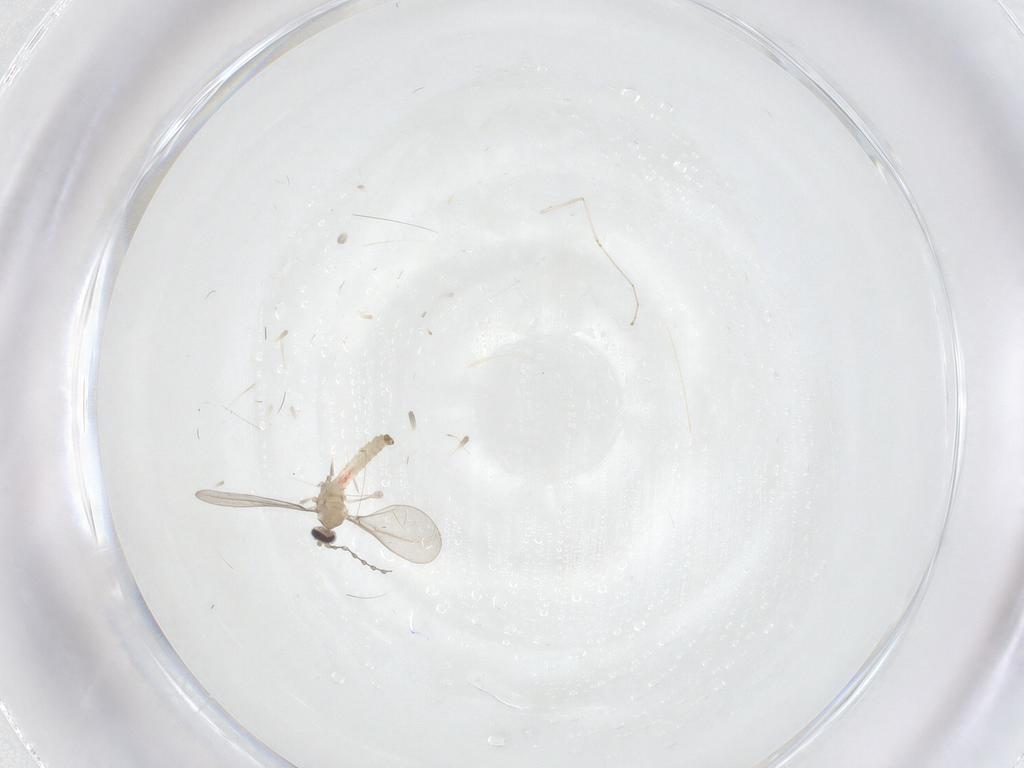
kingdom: Animalia
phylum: Arthropoda
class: Insecta
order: Diptera
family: Cecidomyiidae
